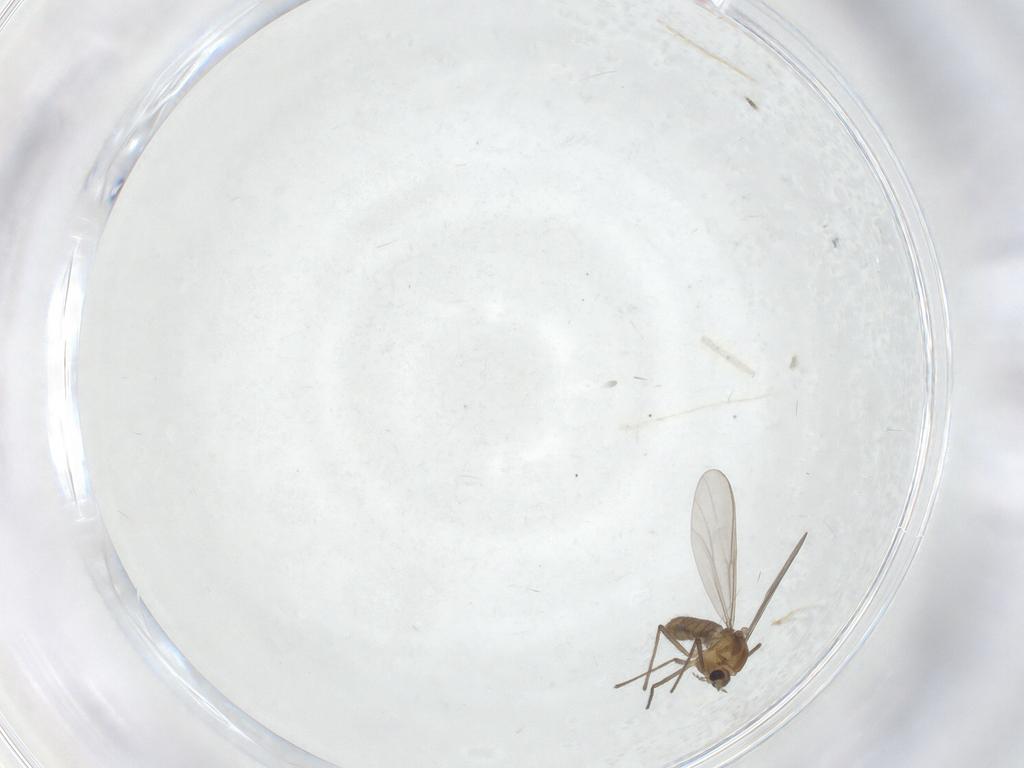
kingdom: Animalia
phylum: Arthropoda
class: Insecta
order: Diptera
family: Chironomidae
